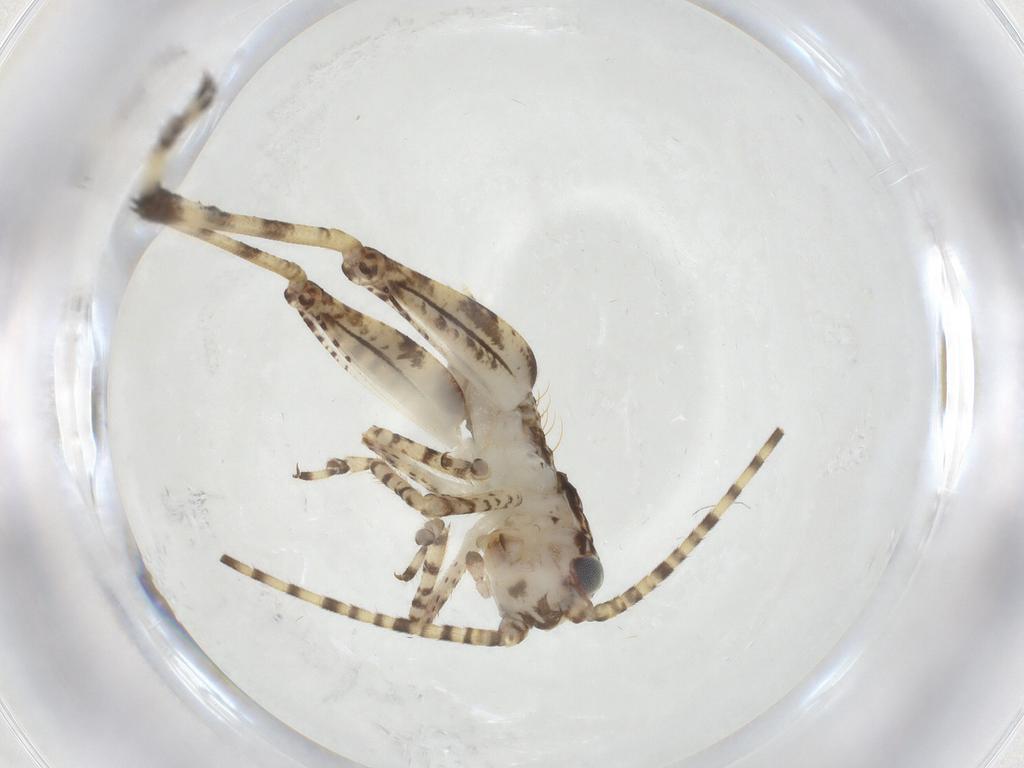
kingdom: Animalia
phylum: Arthropoda
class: Insecta
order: Orthoptera
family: Gryllidae
